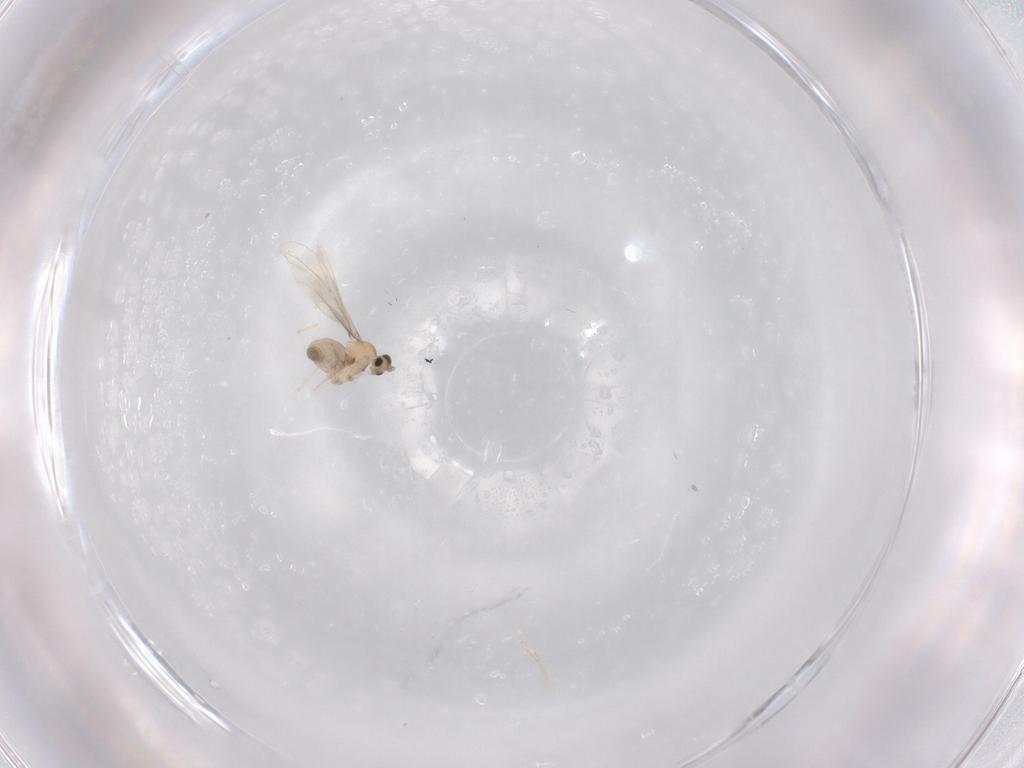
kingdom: Animalia
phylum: Arthropoda
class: Insecta
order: Diptera
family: Cecidomyiidae
